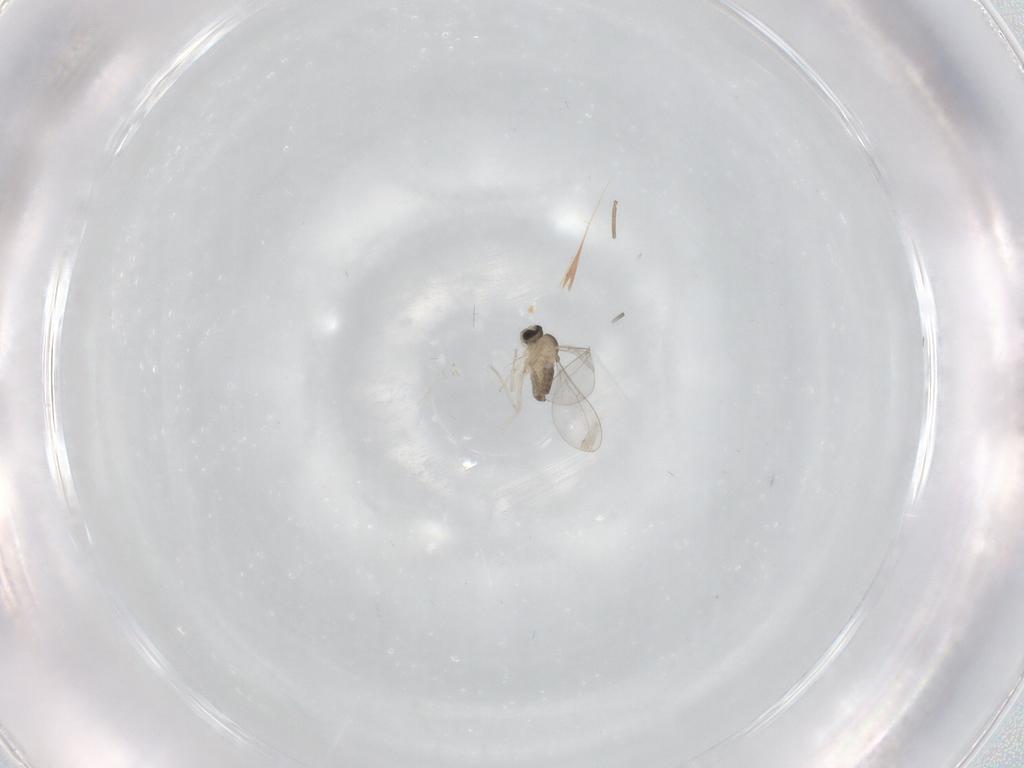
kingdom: Animalia
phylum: Arthropoda
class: Insecta
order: Diptera
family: Cecidomyiidae
